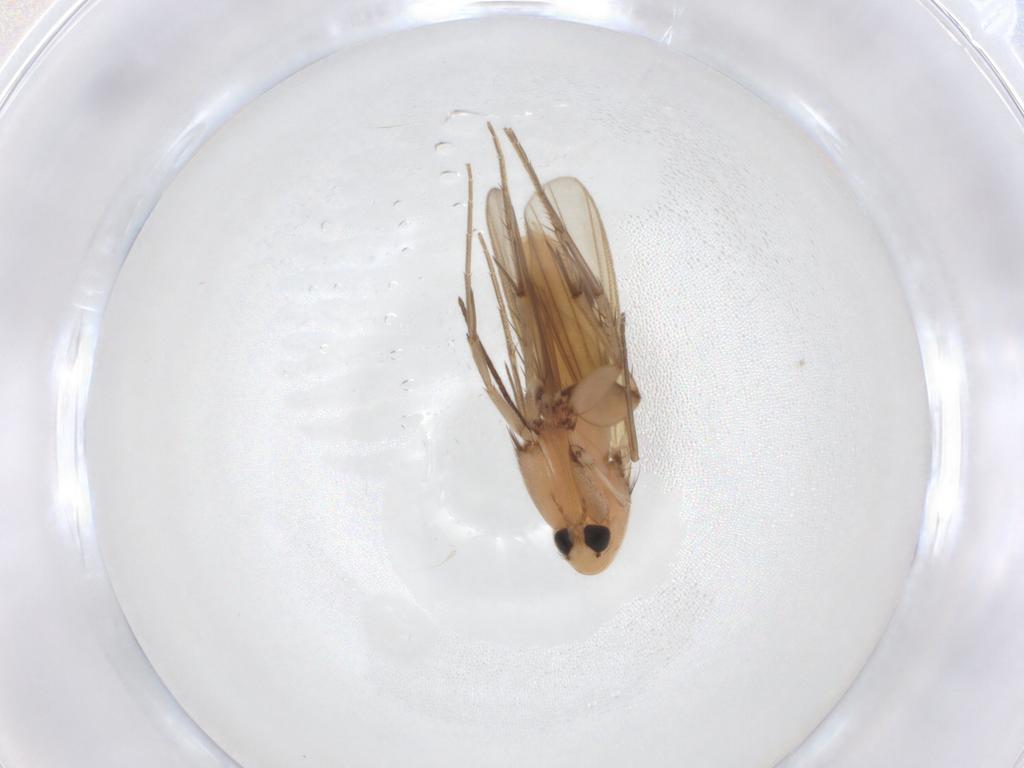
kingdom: Animalia
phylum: Arthropoda
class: Insecta
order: Diptera
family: Mycetophilidae
